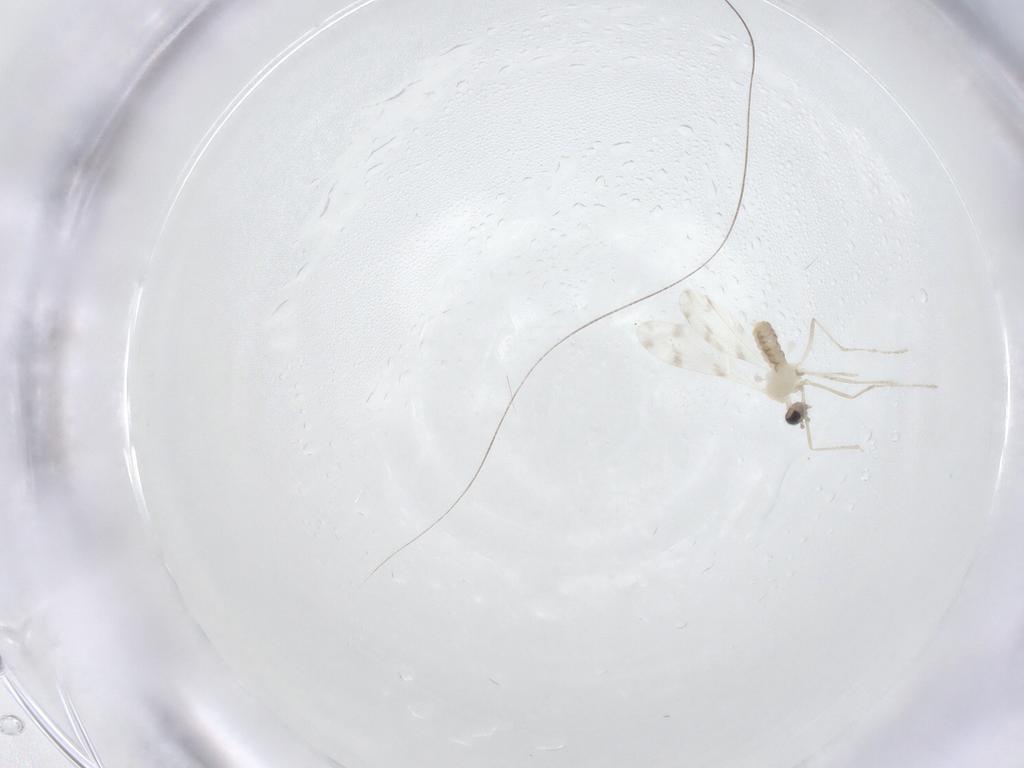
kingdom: Animalia
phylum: Arthropoda
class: Insecta
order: Diptera
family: Cecidomyiidae
